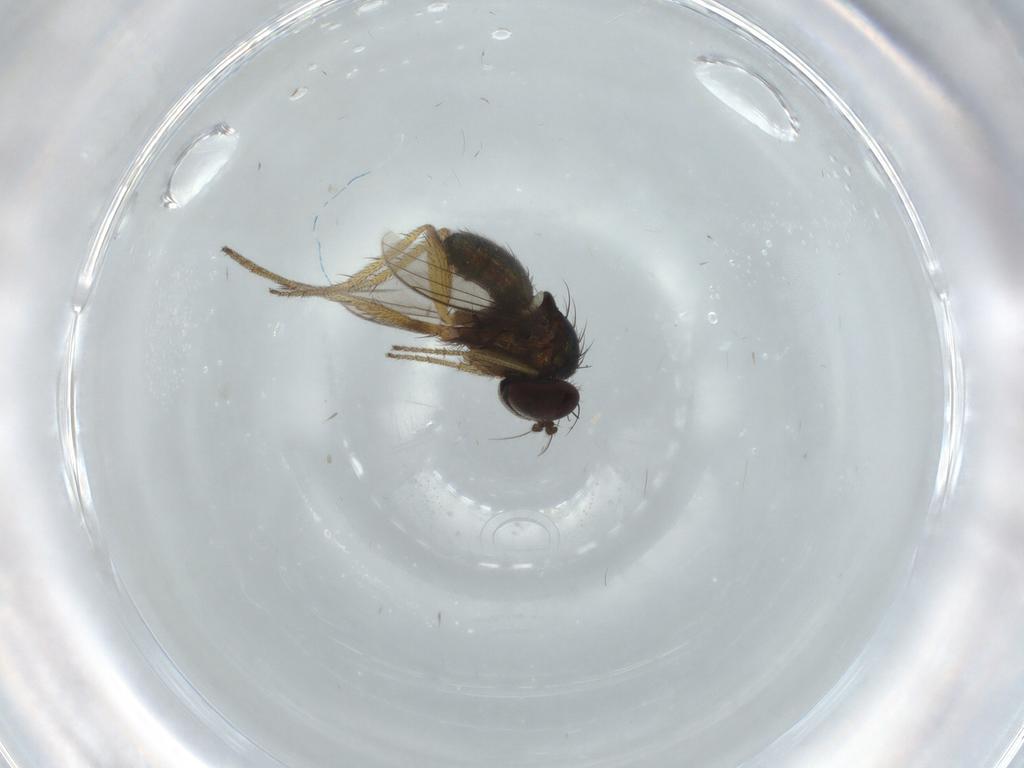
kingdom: Animalia
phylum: Arthropoda
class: Insecta
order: Diptera
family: Dolichopodidae
